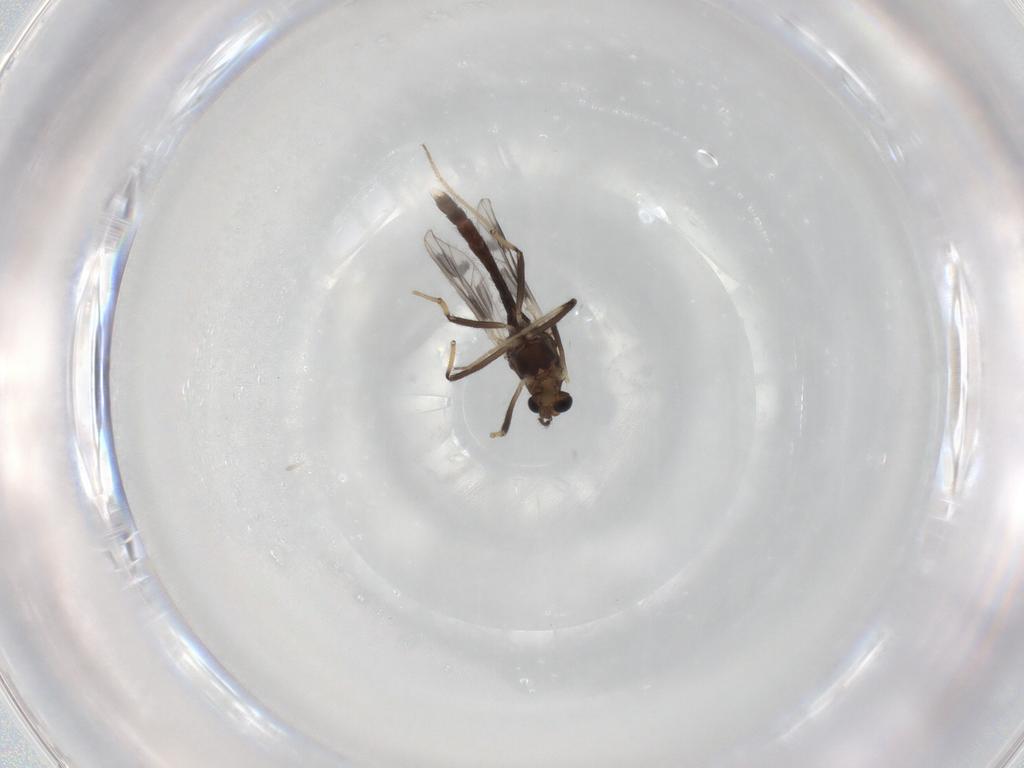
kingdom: Animalia
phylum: Arthropoda
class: Insecta
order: Diptera
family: Chironomidae
